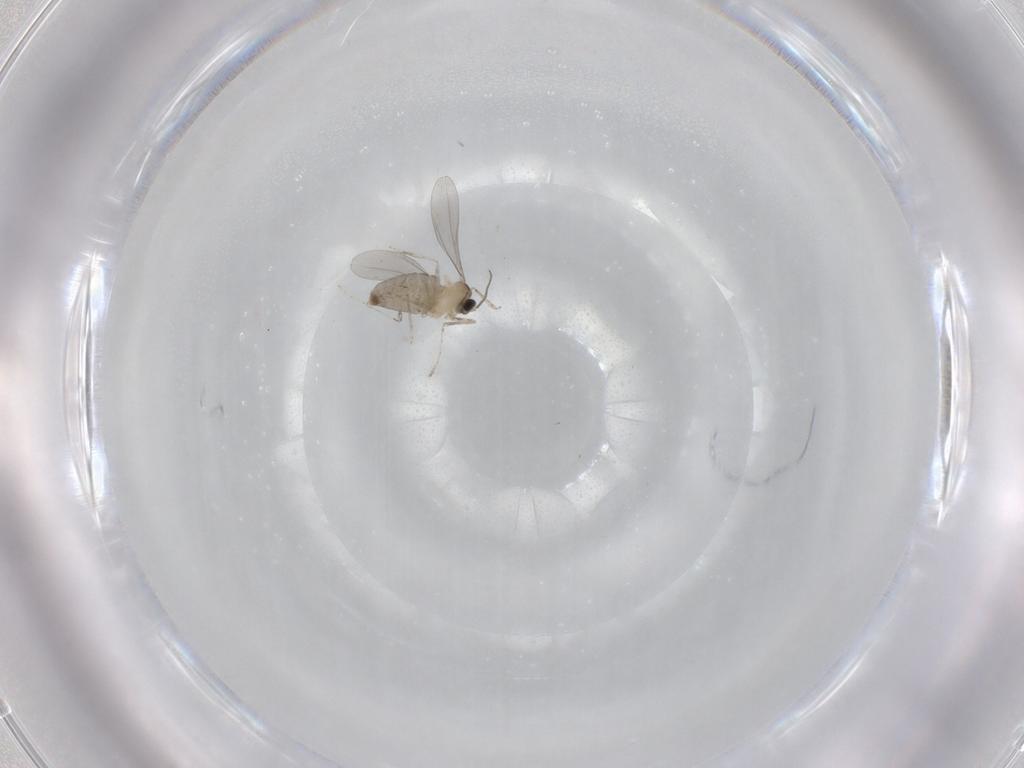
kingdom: Animalia
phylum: Arthropoda
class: Insecta
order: Diptera
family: Cecidomyiidae
